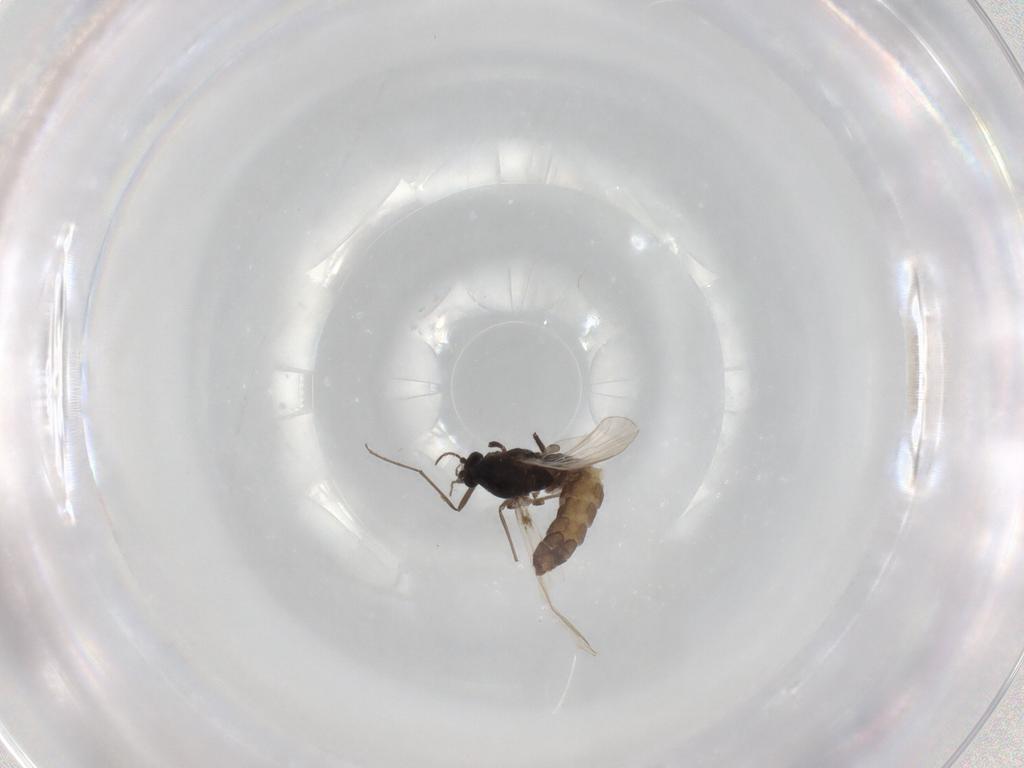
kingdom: Animalia
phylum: Arthropoda
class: Insecta
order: Diptera
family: Chironomidae
